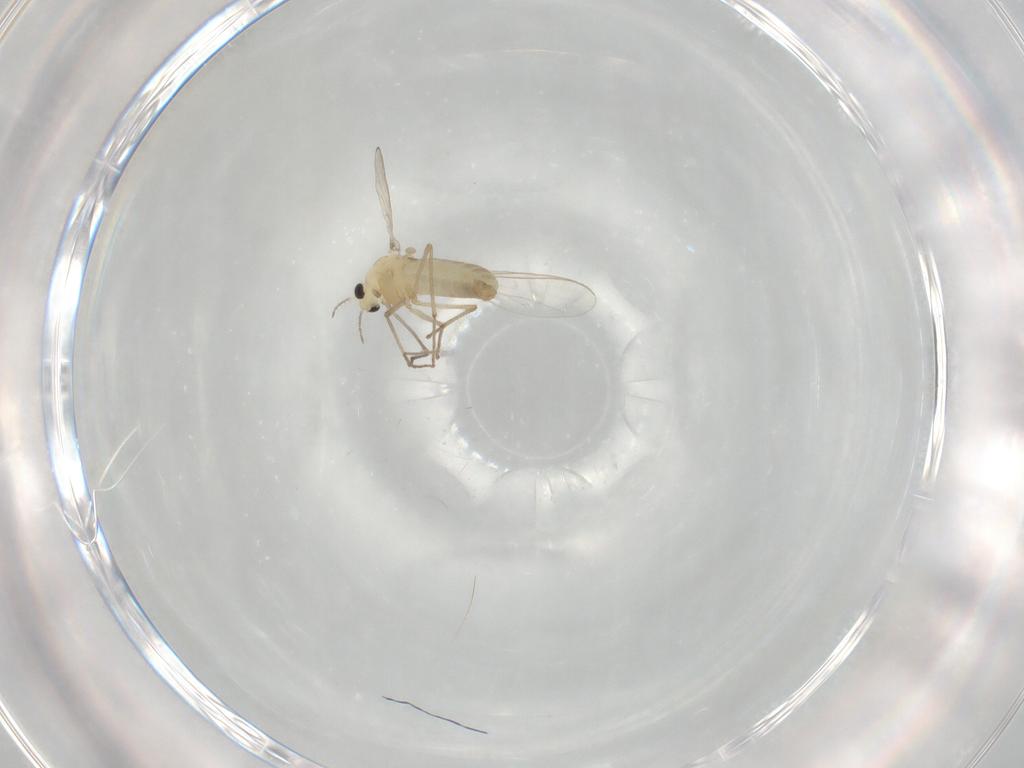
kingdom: Animalia
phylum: Arthropoda
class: Insecta
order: Diptera
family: Chironomidae
